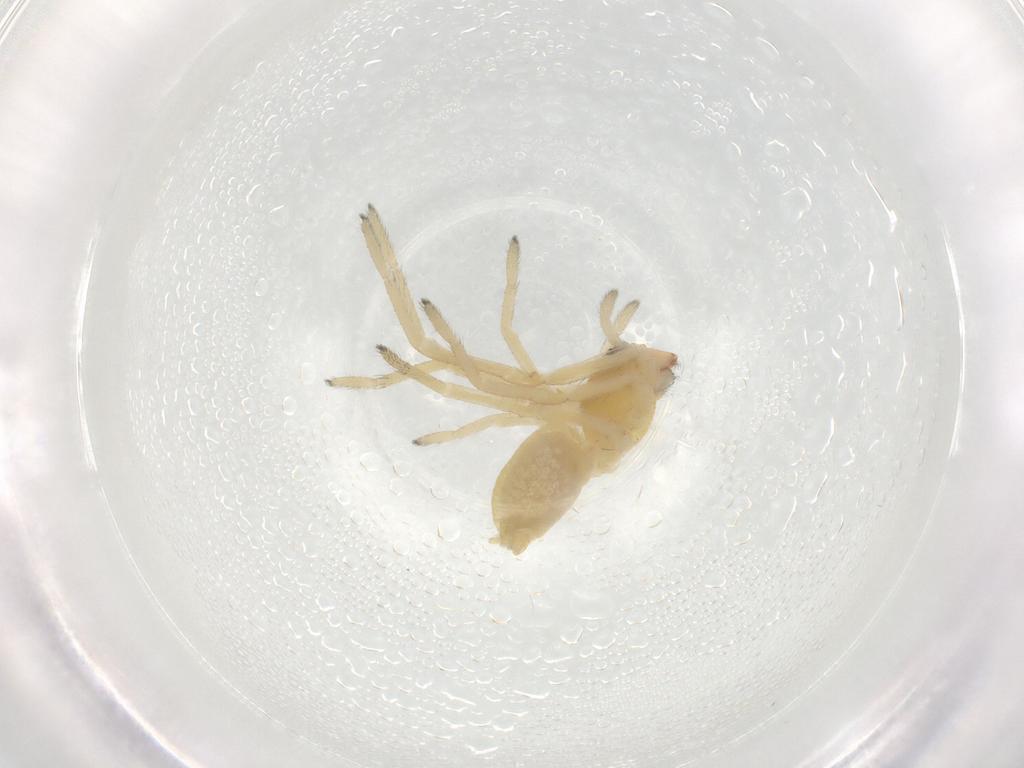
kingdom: Animalia
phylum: Arthropoda
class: Arachnida
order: Araneae
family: Cheiracanthiidae
